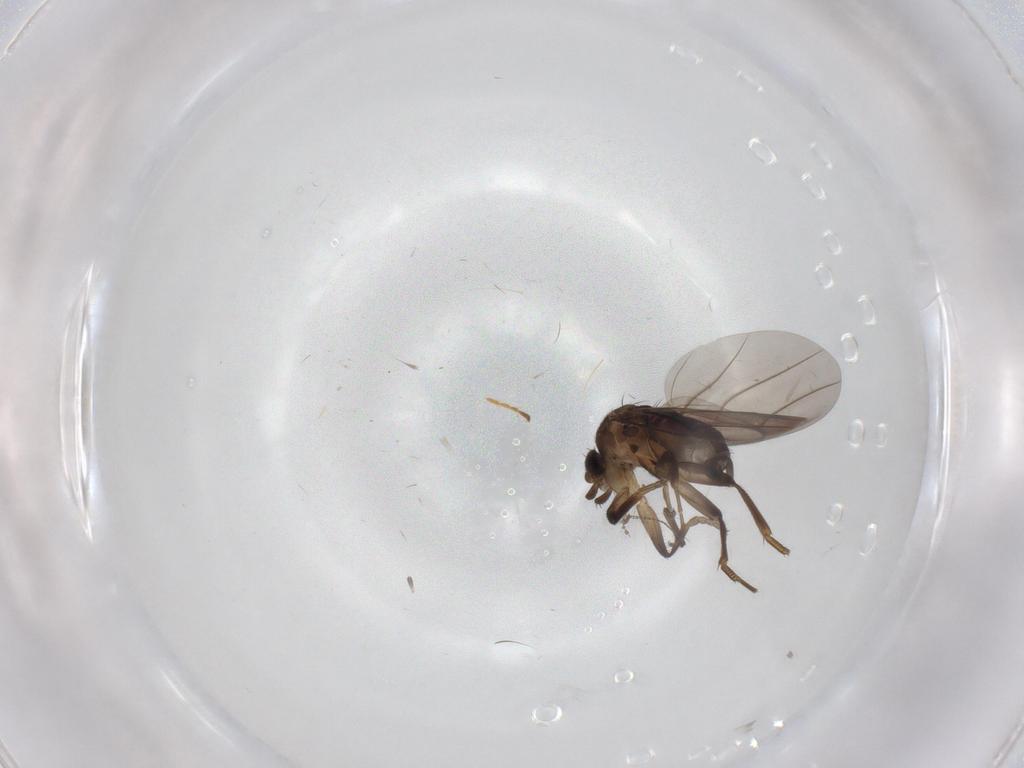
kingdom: Animalia
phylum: Arthropoda
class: Insecta
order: Diptera
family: Phoridae
